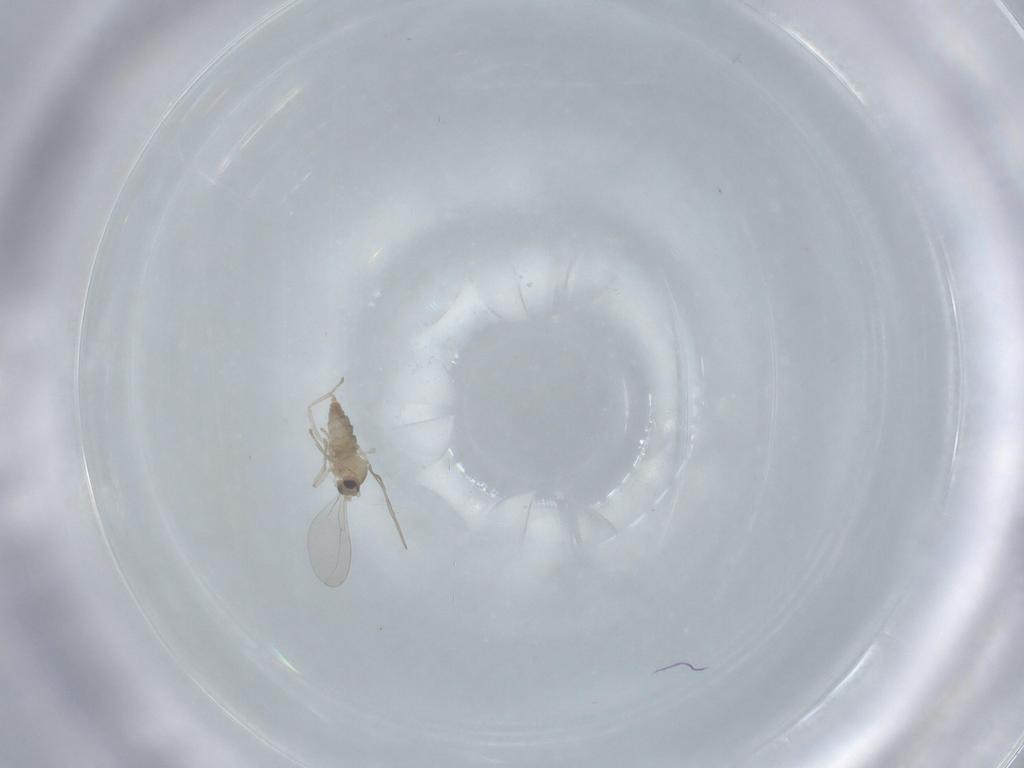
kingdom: Animalia
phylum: Arthropoda
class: Insecta
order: Diptera
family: Cecidomyiidae
